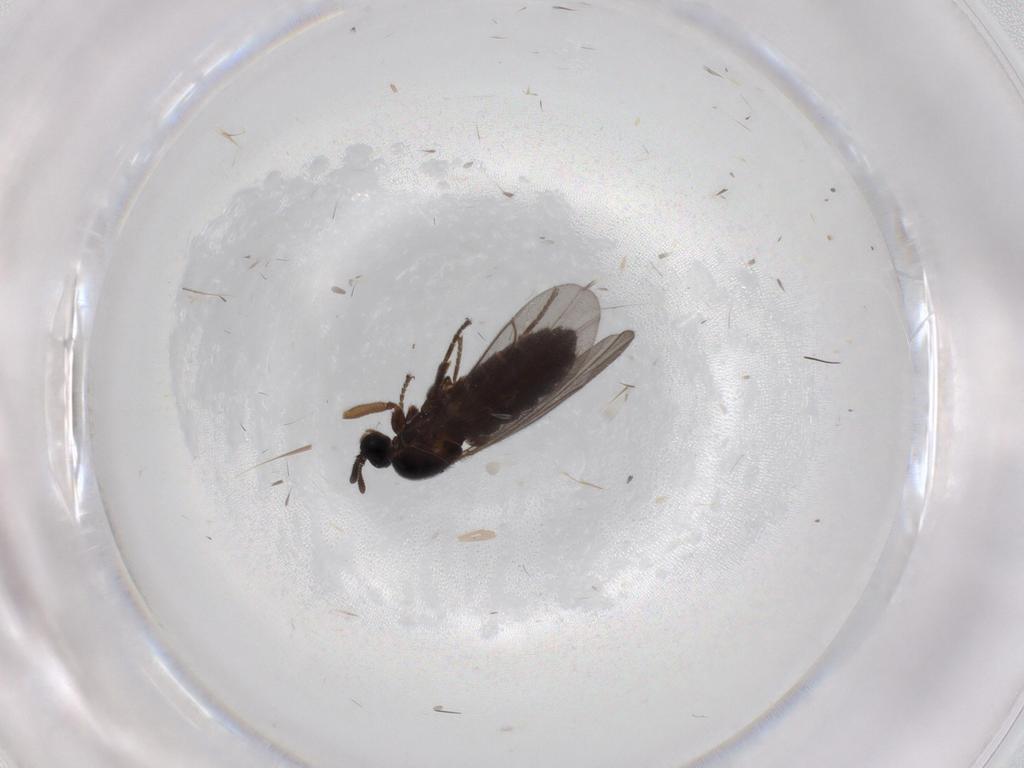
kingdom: Animalia
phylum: Arthropoda
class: Insecta
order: Diptera
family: Scatopsidae
